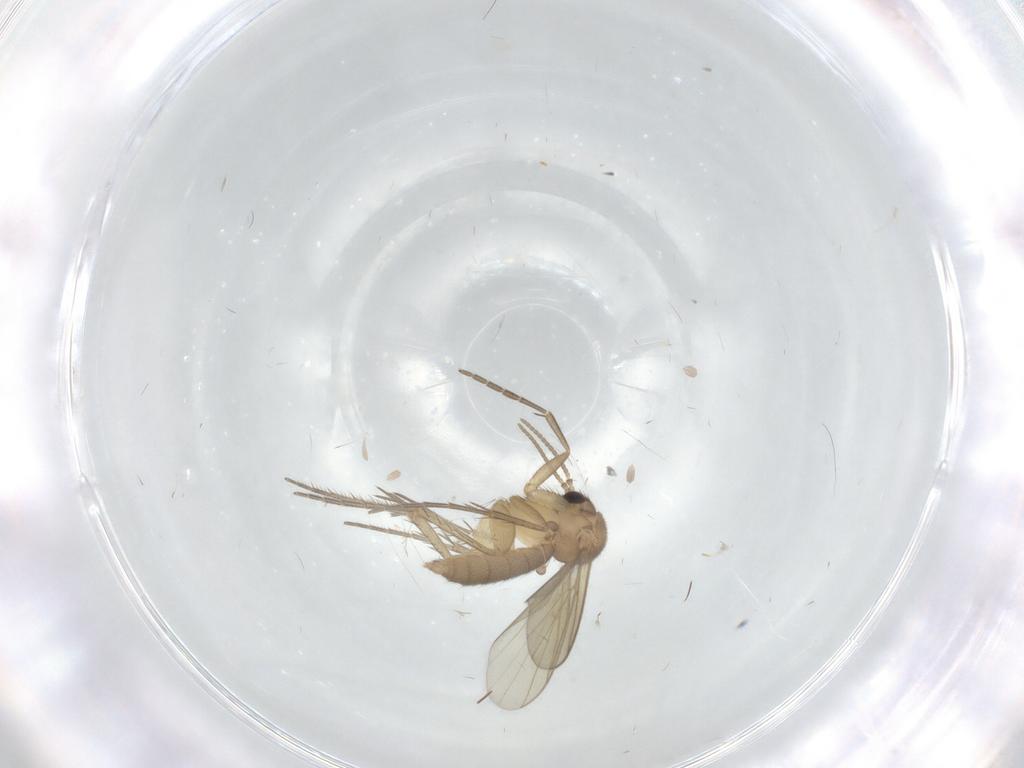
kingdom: Animalia
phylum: Arthropoda
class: Insecta
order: Diptera
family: Mycetophilidae
